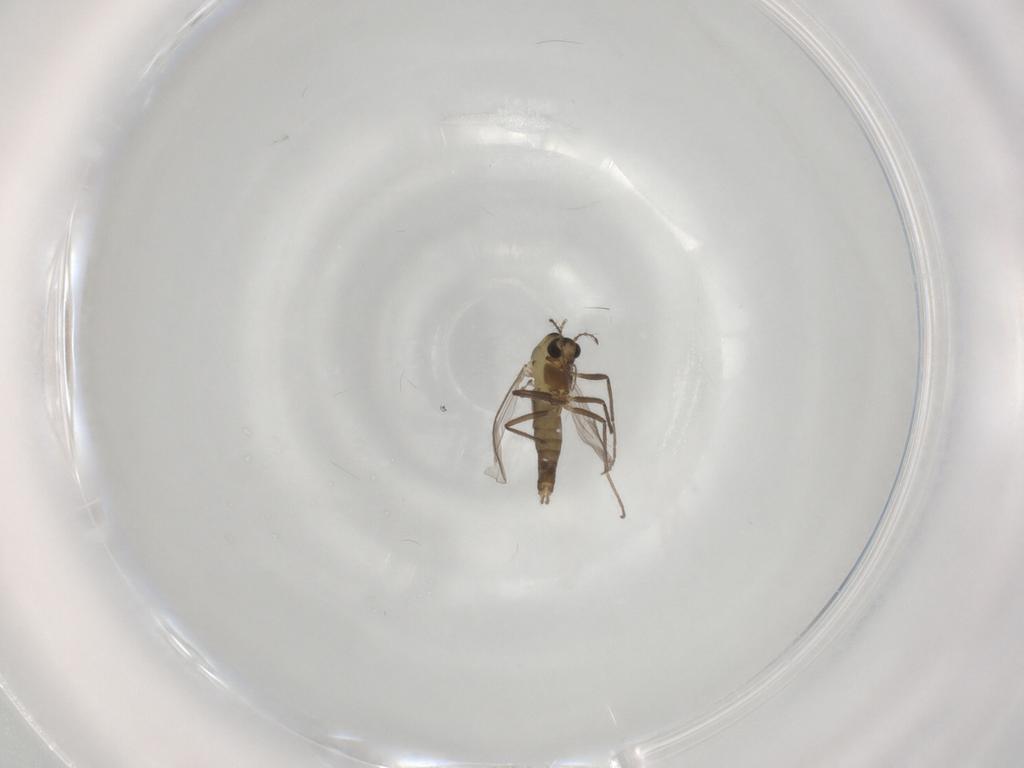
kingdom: Animalia
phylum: Arthropoda
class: Insecta
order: Diptera
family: Chironomidae
